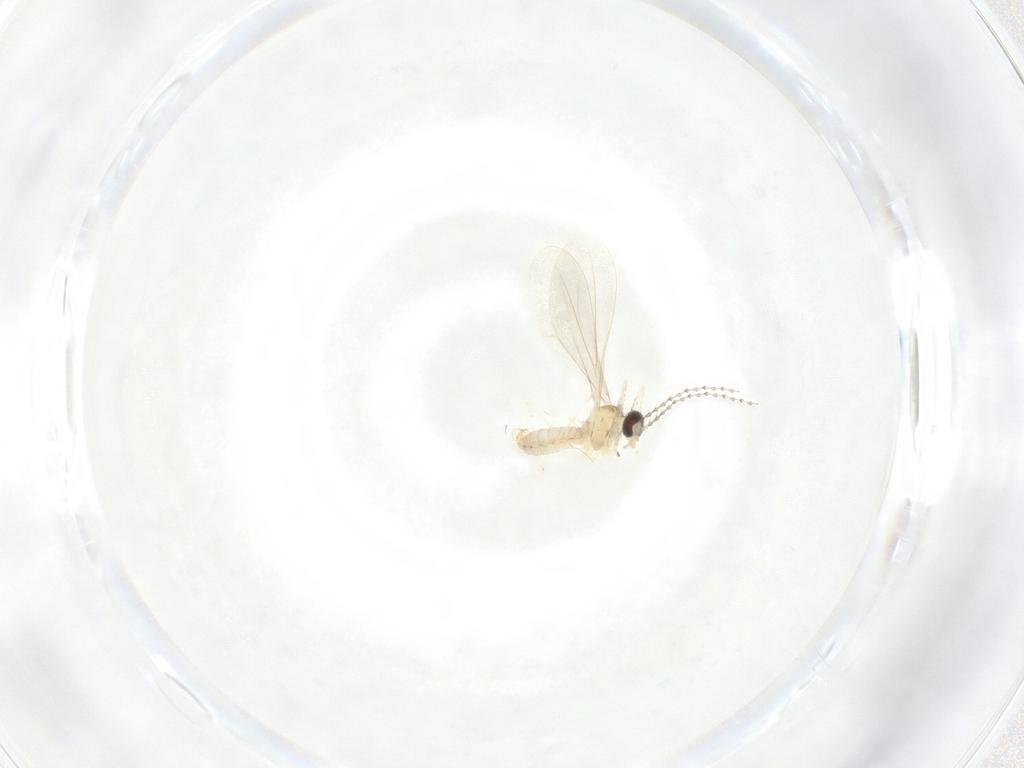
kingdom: Animalia
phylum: Arthropoda
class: Insecta
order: Diptera
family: Cecidomyiidae
